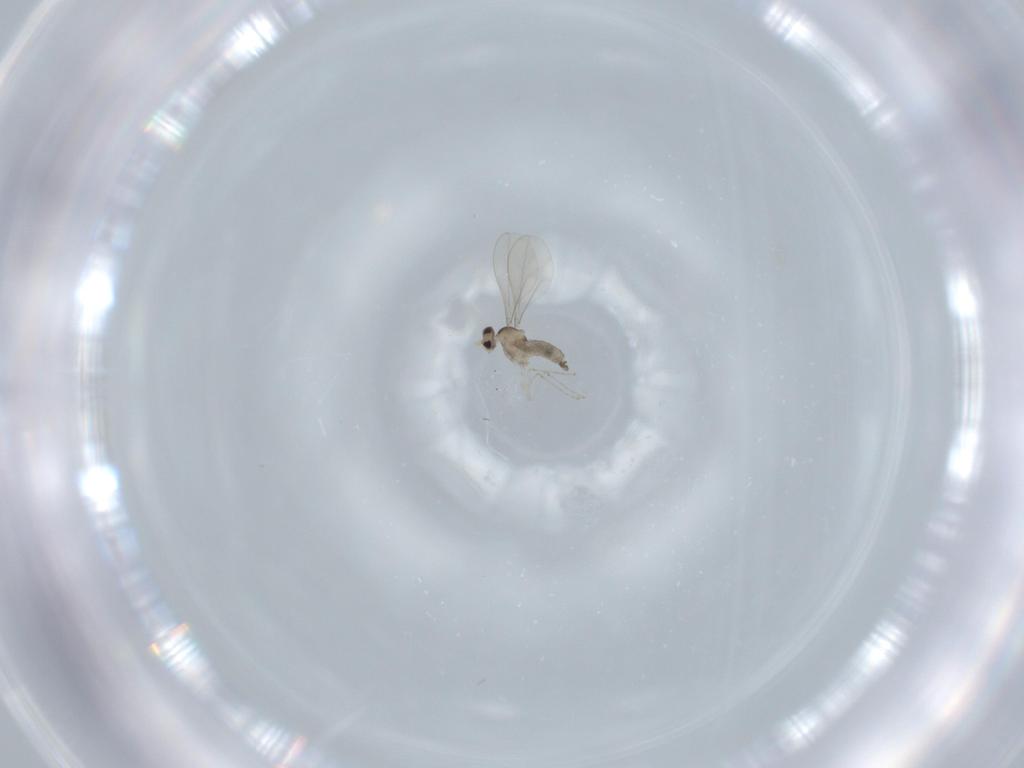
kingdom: Animalia
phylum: Arthropoda
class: Insecta
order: Diptera
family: Cecidomyiidae
